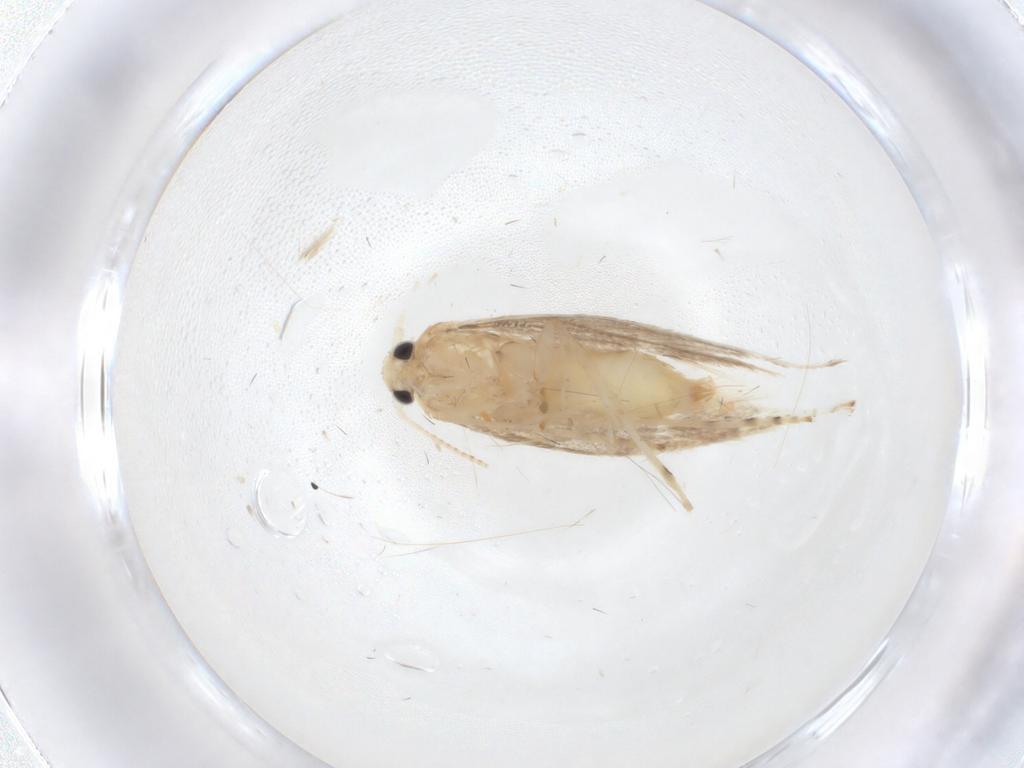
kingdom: Animalia
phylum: Arthropoda
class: Insecta
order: Lepidoptera
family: Gracillariidae
